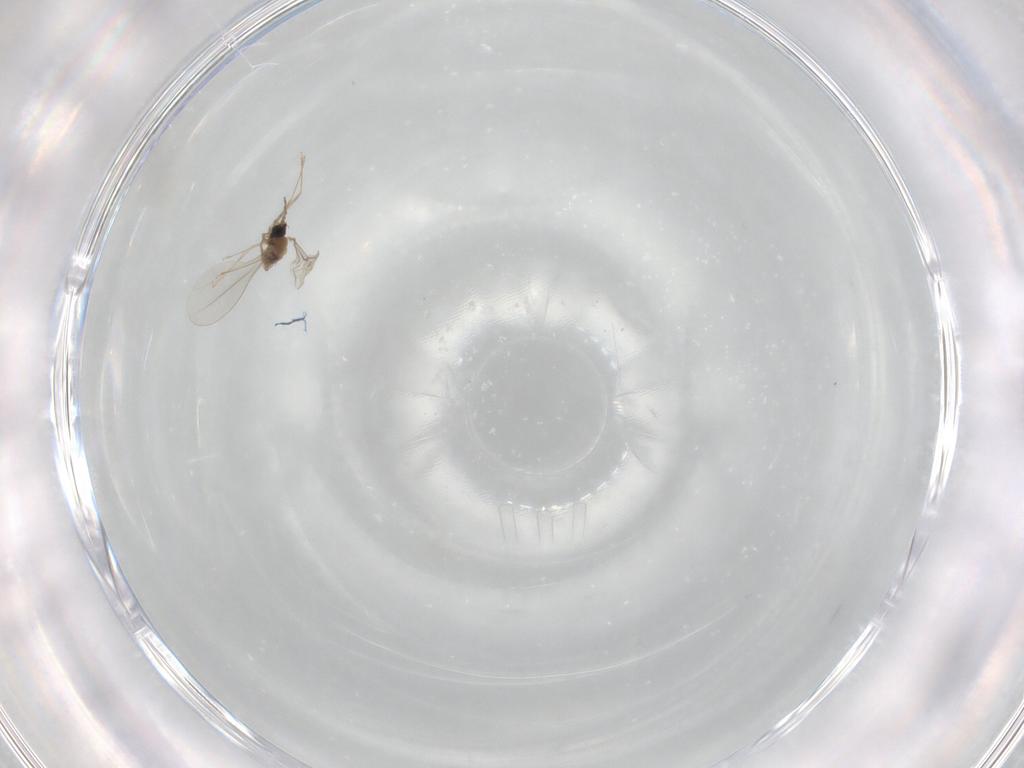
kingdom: Animalia
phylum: Arthropoda
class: Insecta
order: Diptera
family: Chironomidae
